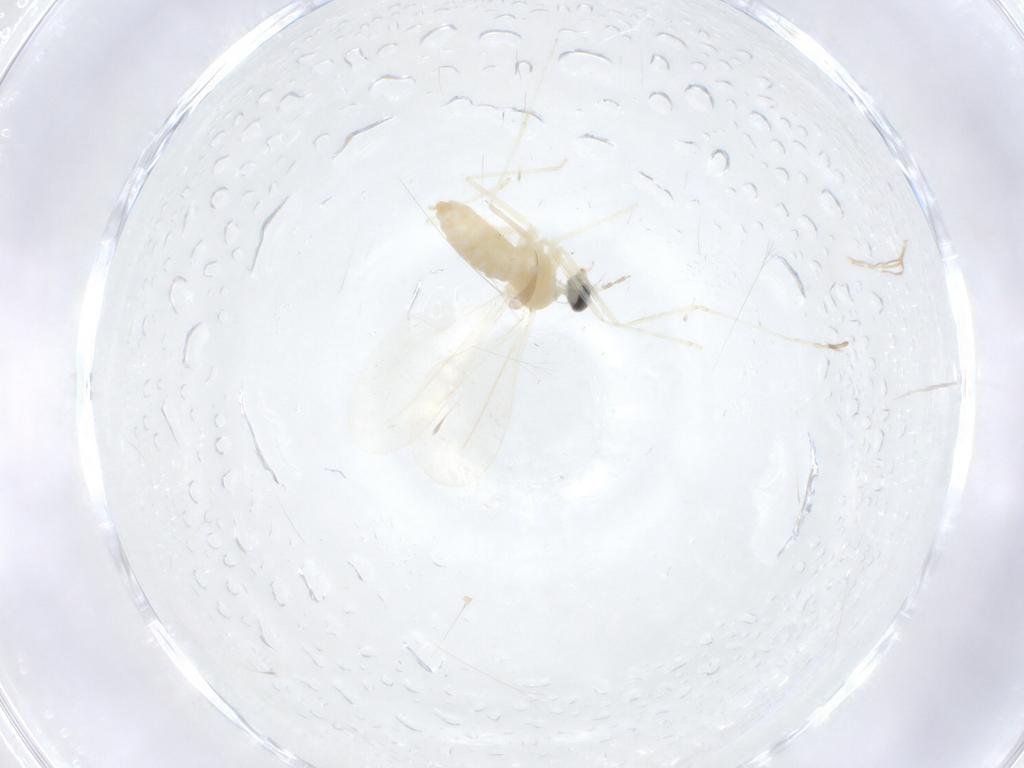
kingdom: Animalia
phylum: Arthropoda
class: Insecta
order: Diptera
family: Cecidomyiidae
